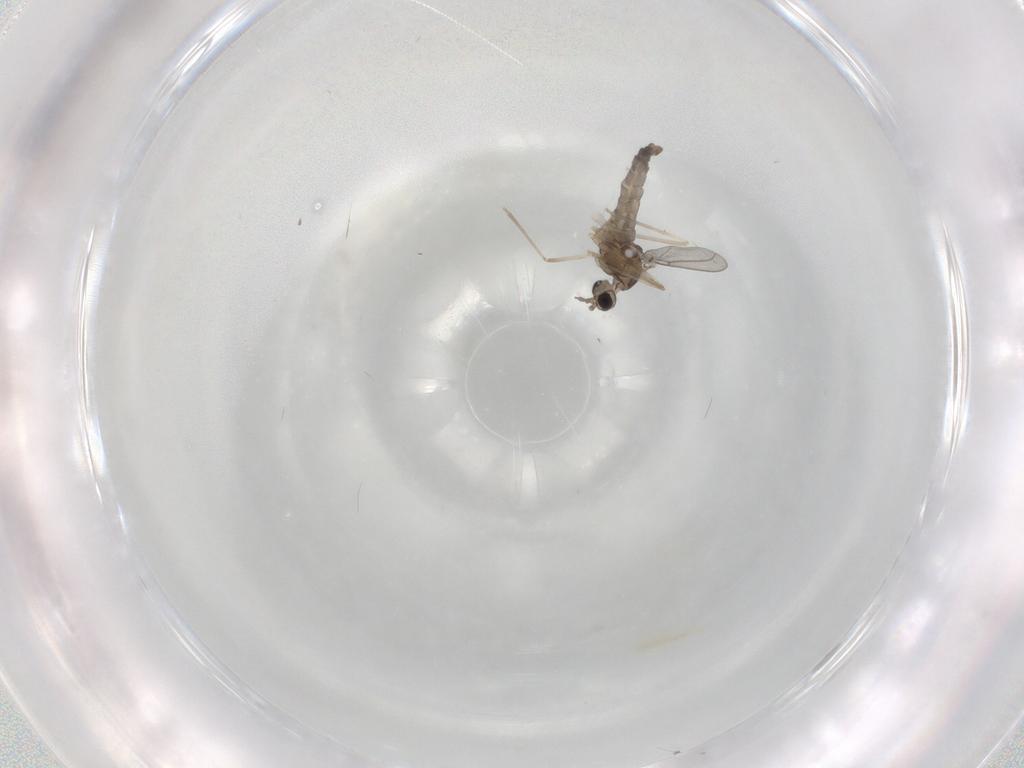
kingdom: Animalia
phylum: Arthropoda
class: Insecta
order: Diptera
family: Cecidomyiidae
